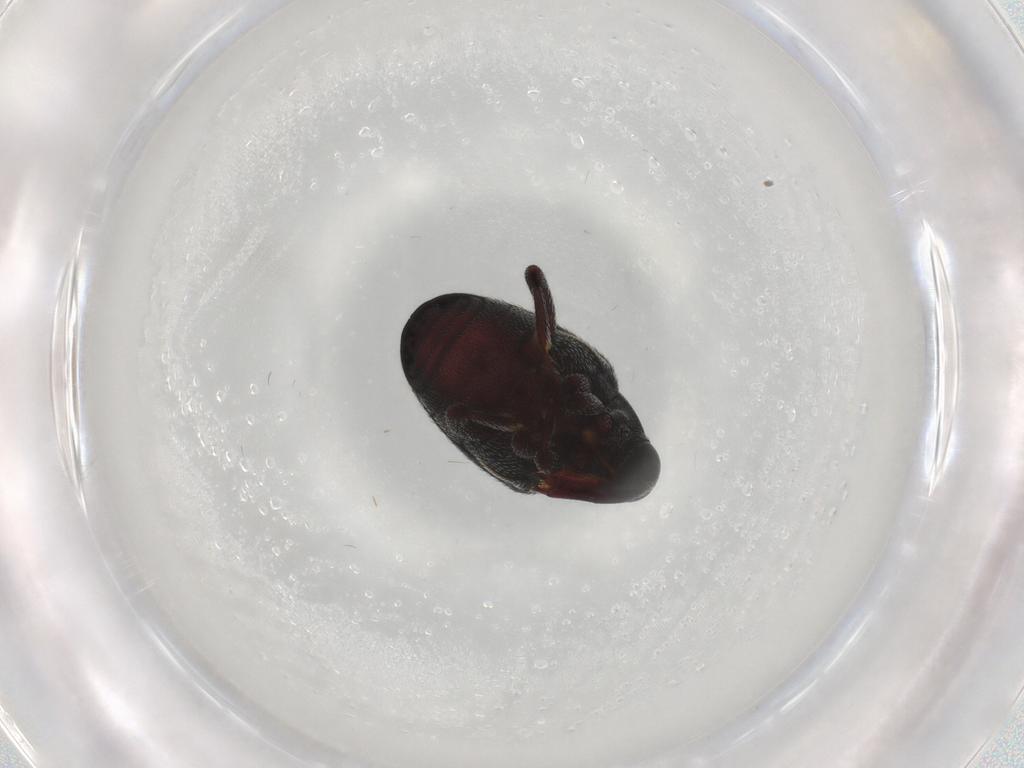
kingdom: Animalia
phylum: Arthropoda
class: Insecta
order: Coleoptera
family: Curculionidae
